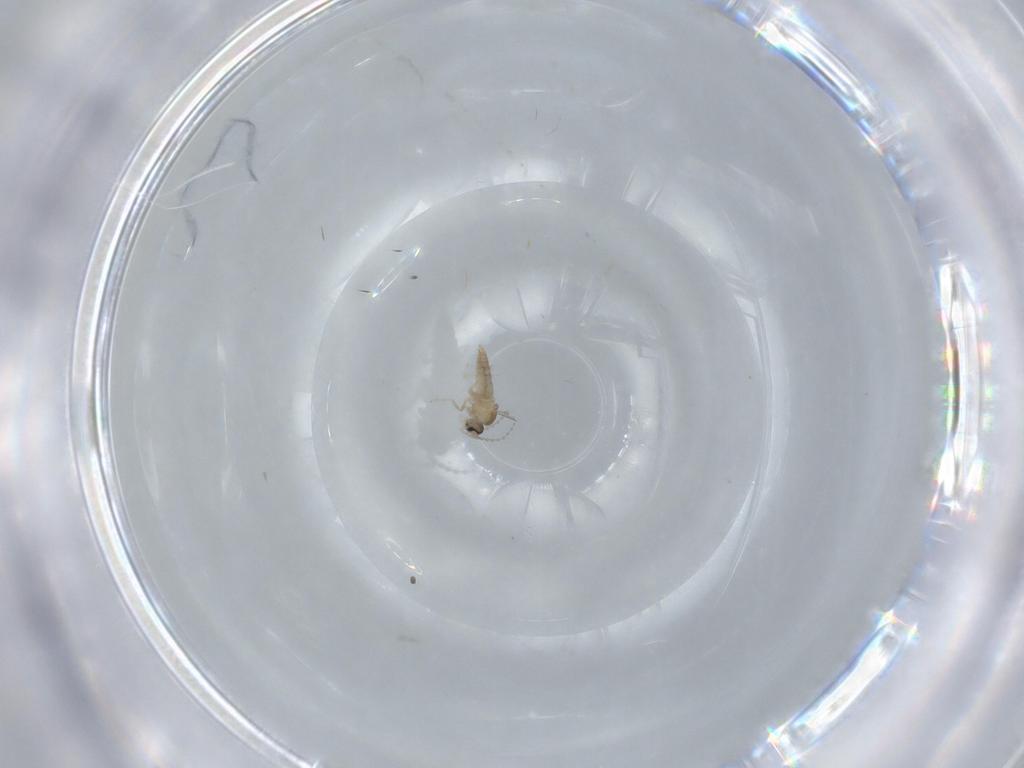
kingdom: Animalia
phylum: Arthropoda
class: Insecta
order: Diptera
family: Cecidomyiidae
